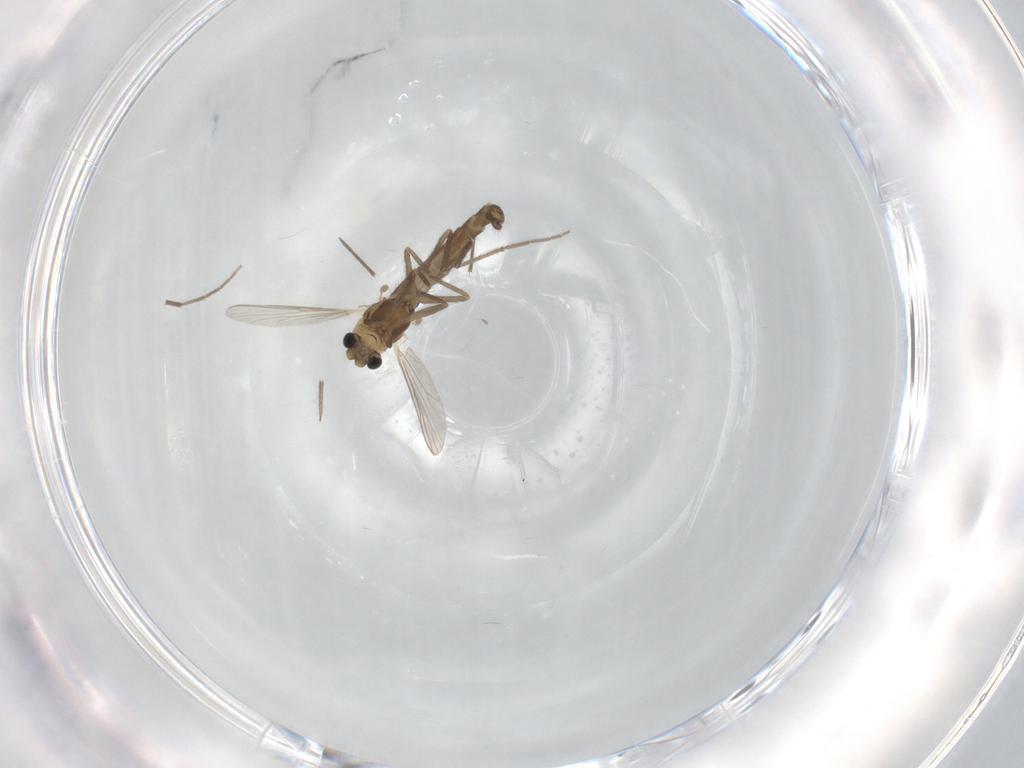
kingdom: Animalia
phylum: Arthropoda
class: Insecta
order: Diptera
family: Chironomidae
